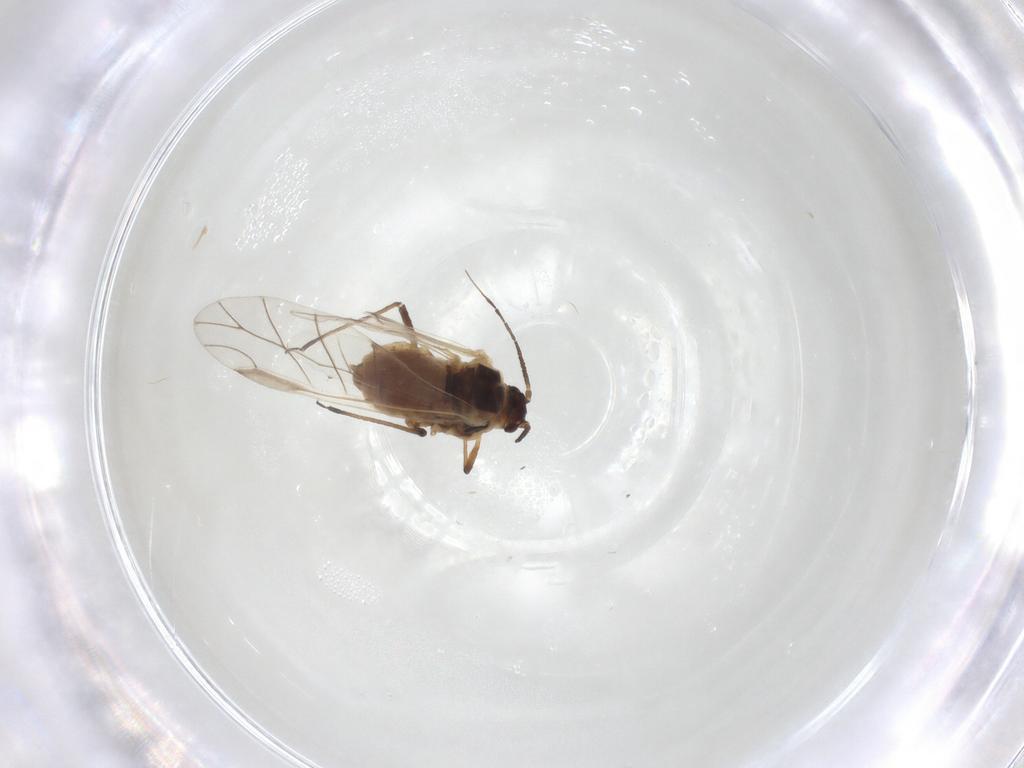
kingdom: Animalia
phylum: Arthropoda
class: Insecta
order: Hemiptera
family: Aphididae
